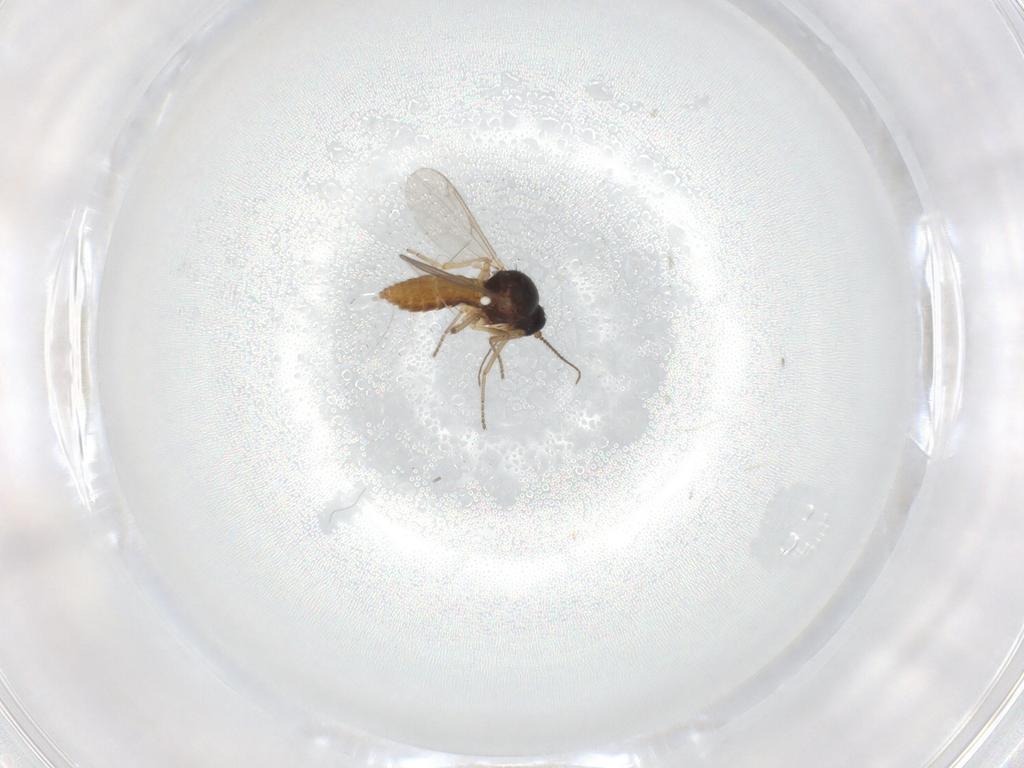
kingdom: Animalia
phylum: Arthropoda
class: Insecta
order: Diptera
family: Ceratopogonidae
